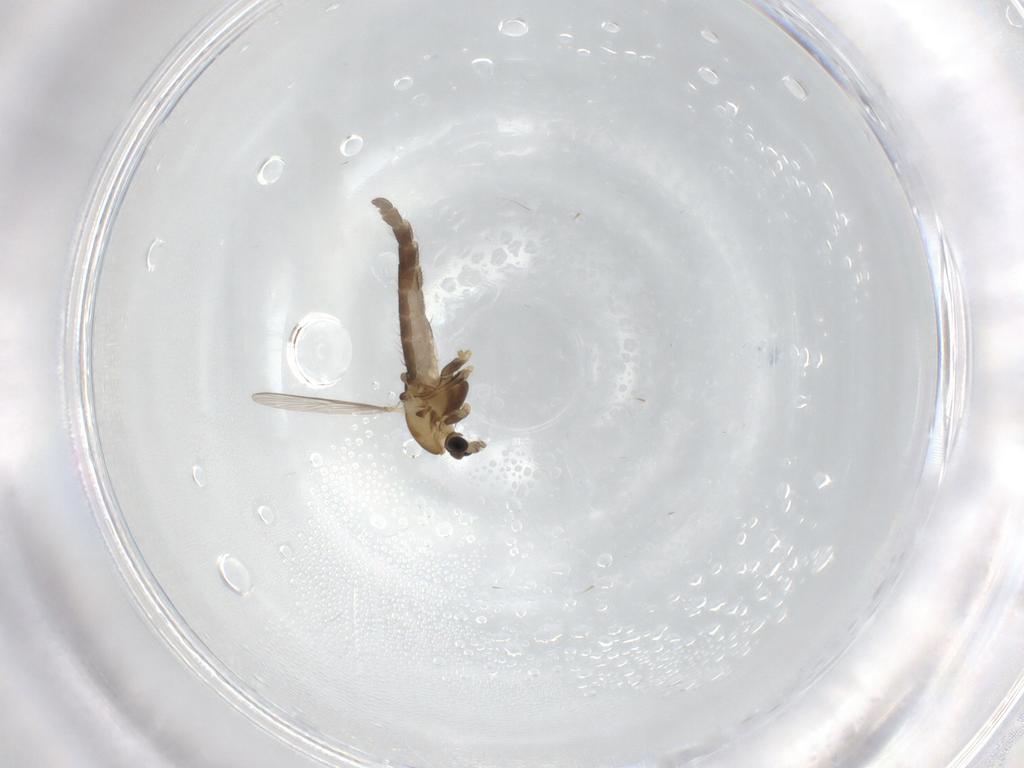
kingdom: Animalia
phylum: Arthropoda
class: Insecta
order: Diptera
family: Chironomidae
